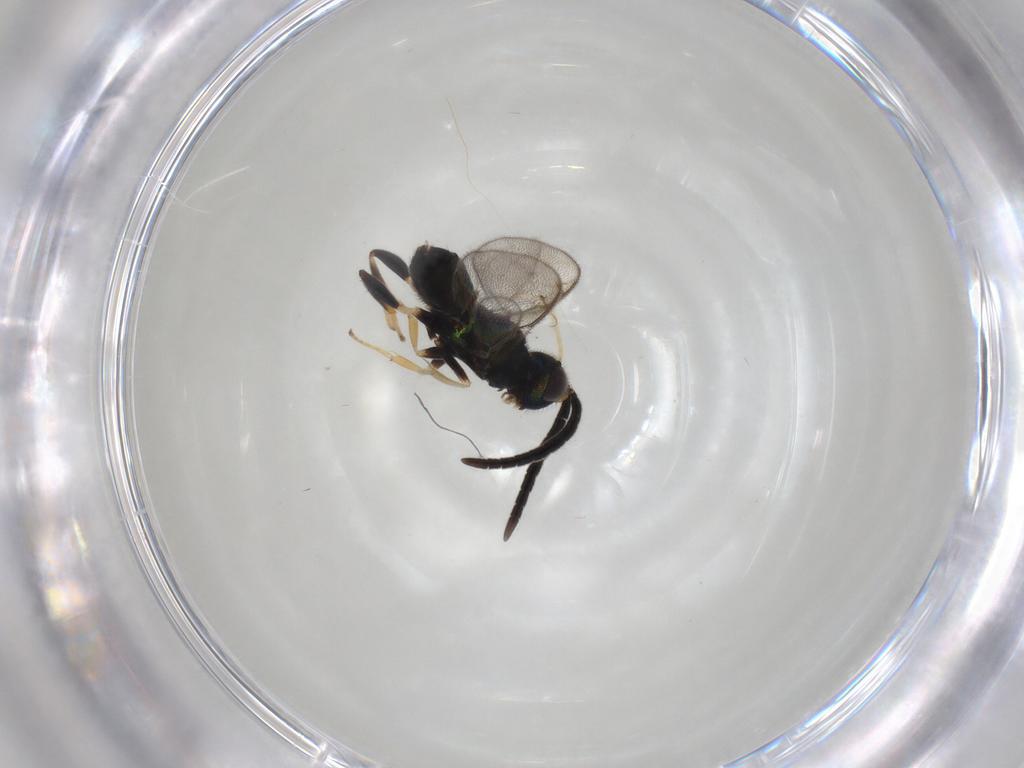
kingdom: Animalia
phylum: Arthropoda
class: Insecta
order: Hymenoptera
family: Eupelmidae
